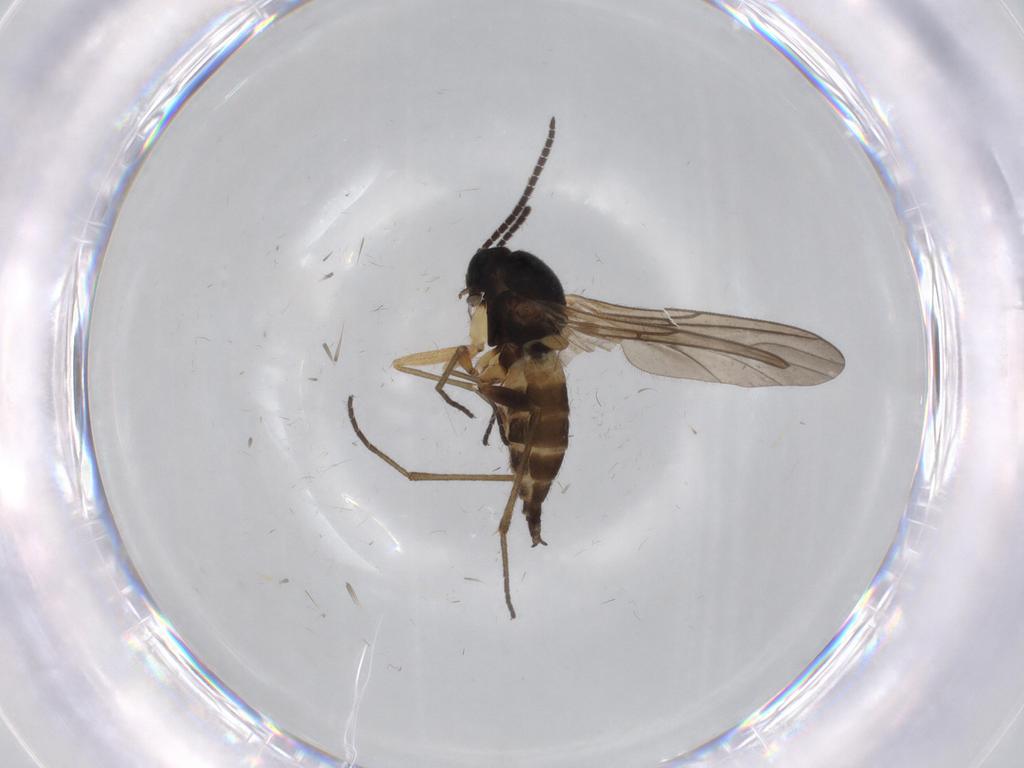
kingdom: Animalia
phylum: Arthropoda
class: Insecta
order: Diptera
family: Sciaridae
